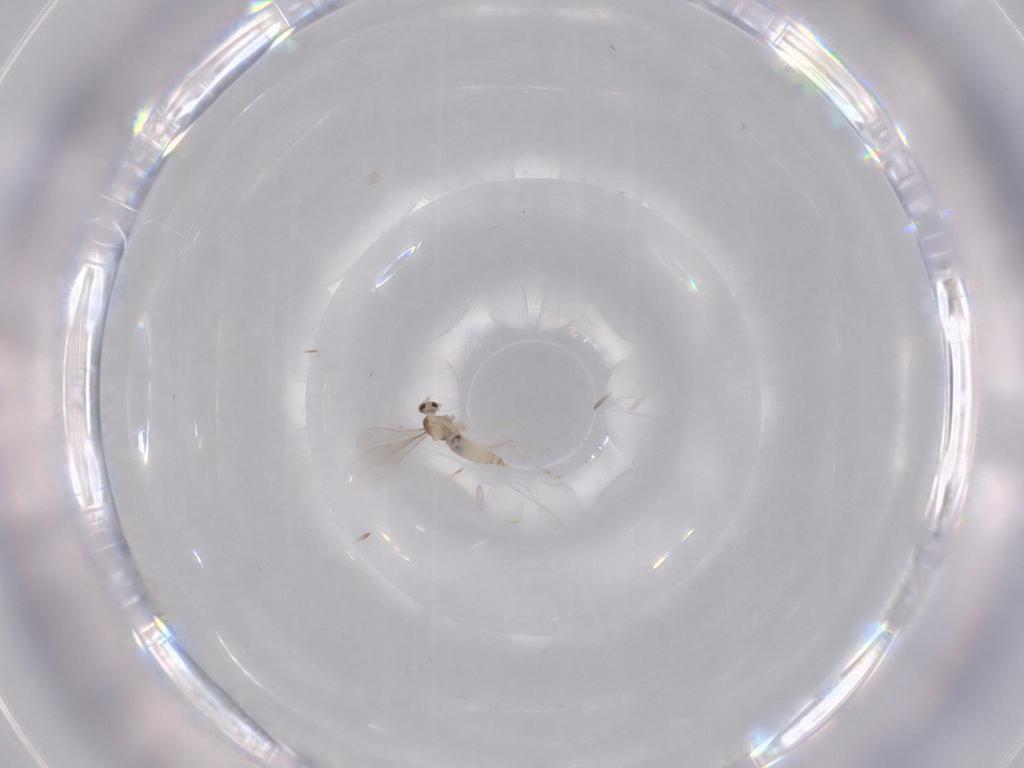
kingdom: Animalia
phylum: Arthropoda
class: Insecta
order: Diptera
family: Cecidomyiidae
